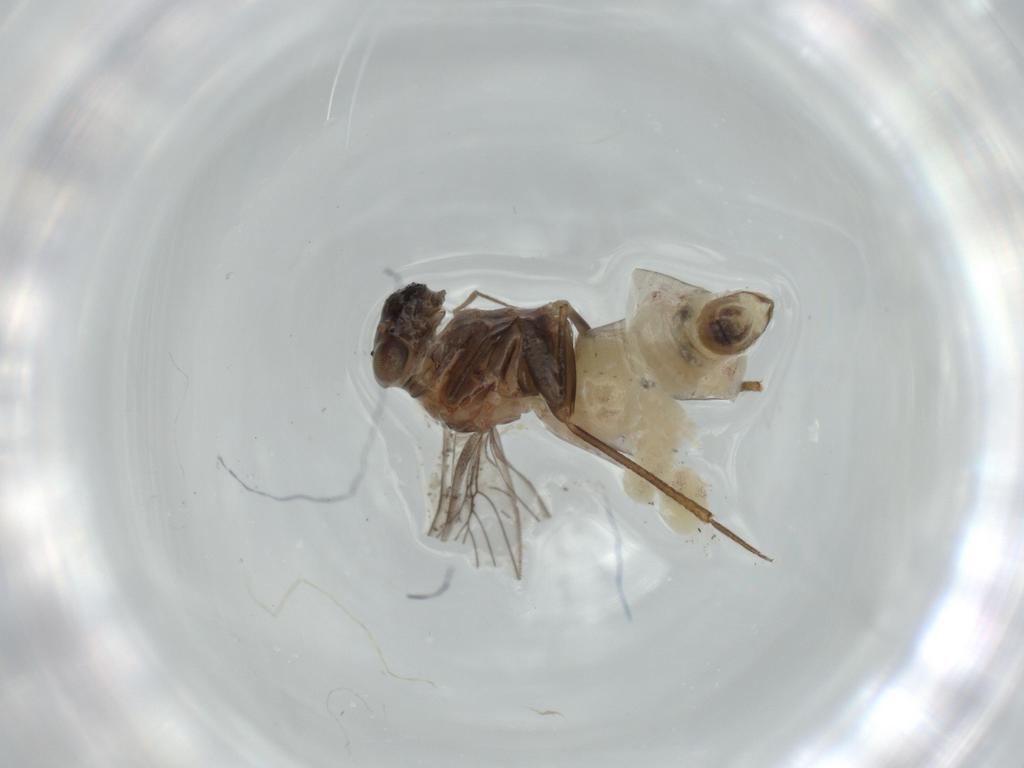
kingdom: Animalia
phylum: Arthropoda
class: Insecta
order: Psocodea
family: Lepidopsocidae
